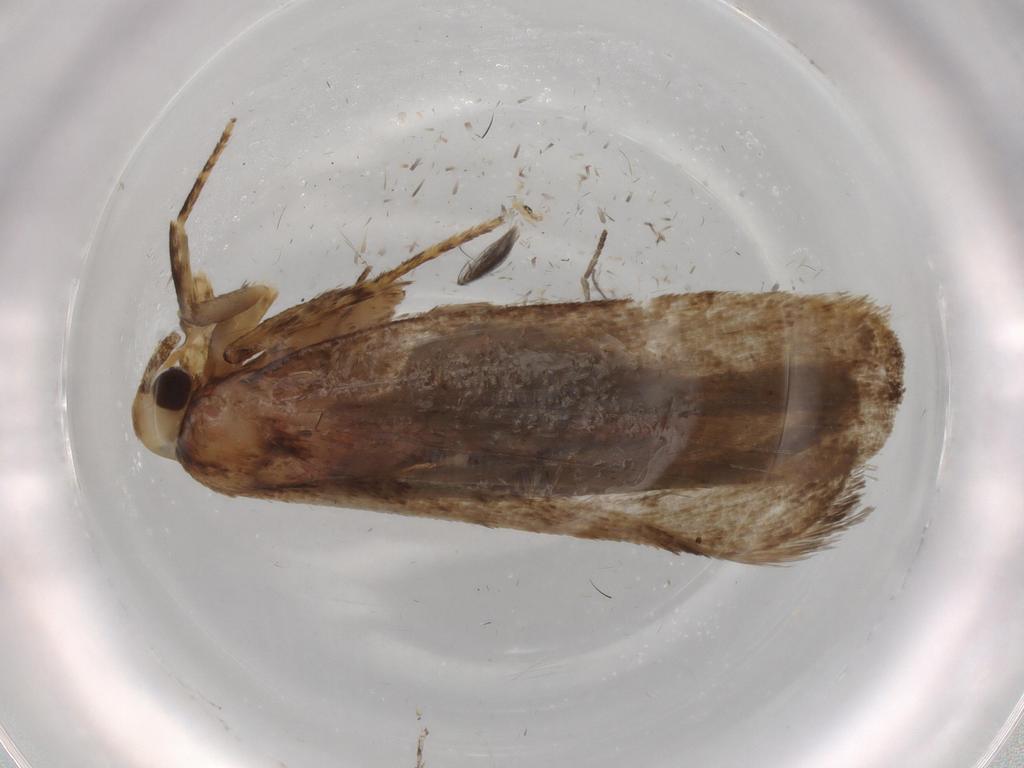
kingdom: Animalia
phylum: Arthropoda
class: Insecta
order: Lepidoptera
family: Autostichidae
